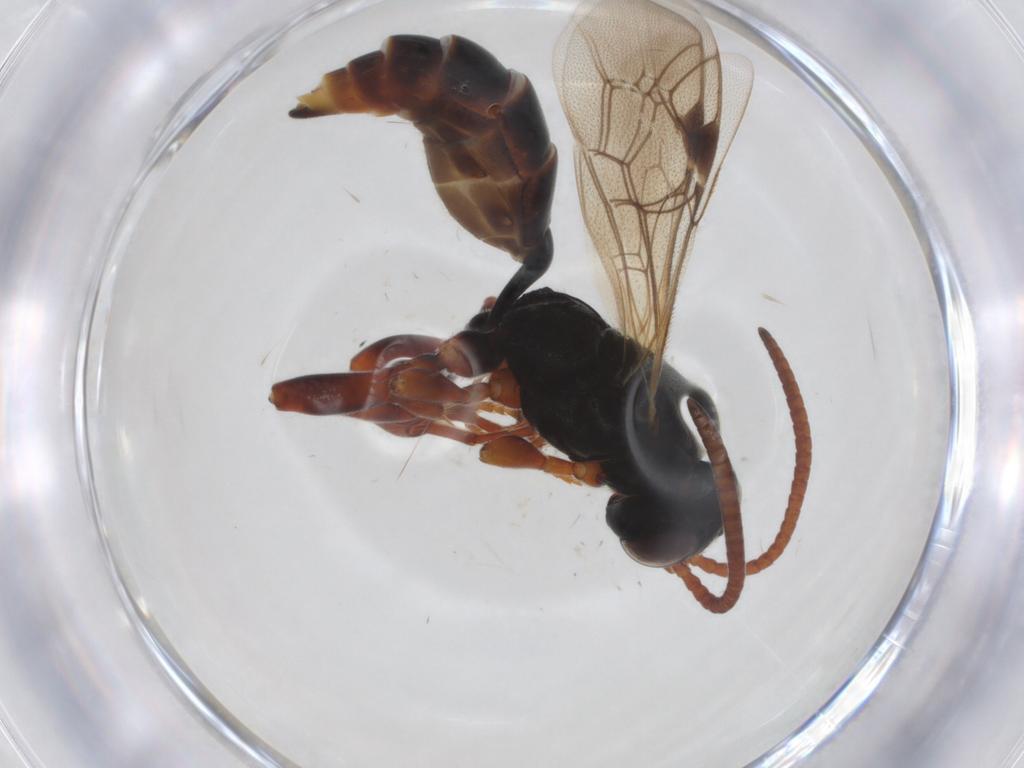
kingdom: Animalia
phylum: Arthropoda
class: Insecta
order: Hymenoptera
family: Ichneumonidae
